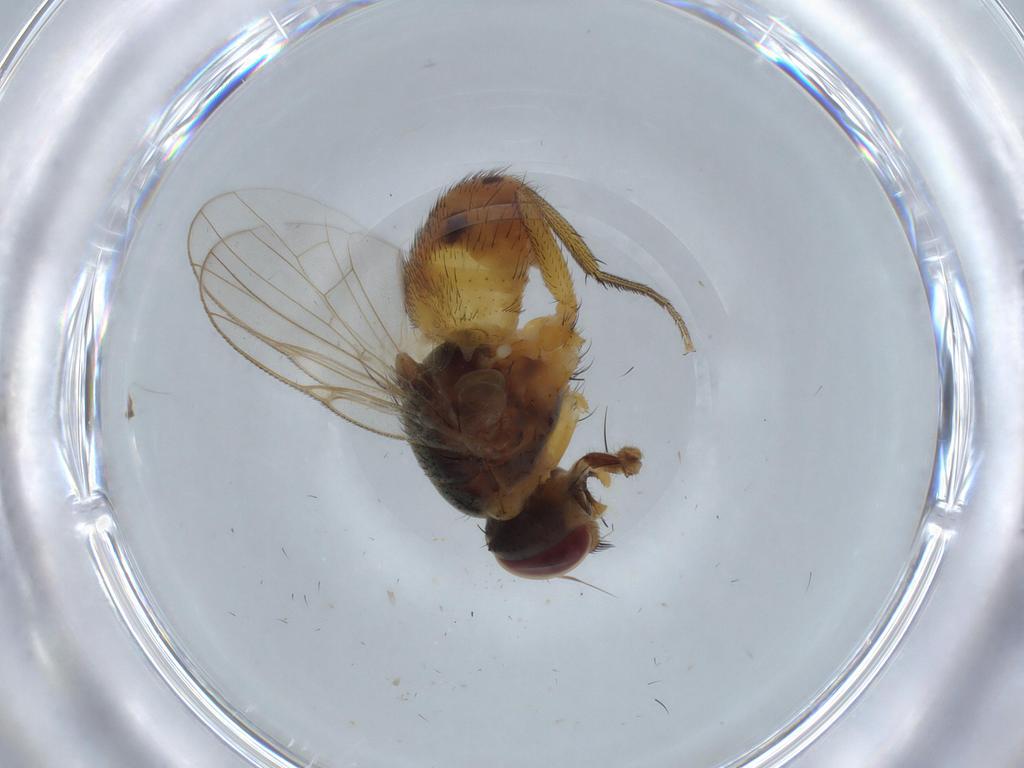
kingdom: Animalia
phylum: Arthropoda
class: Insecta
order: Diptera
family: Muscidae
